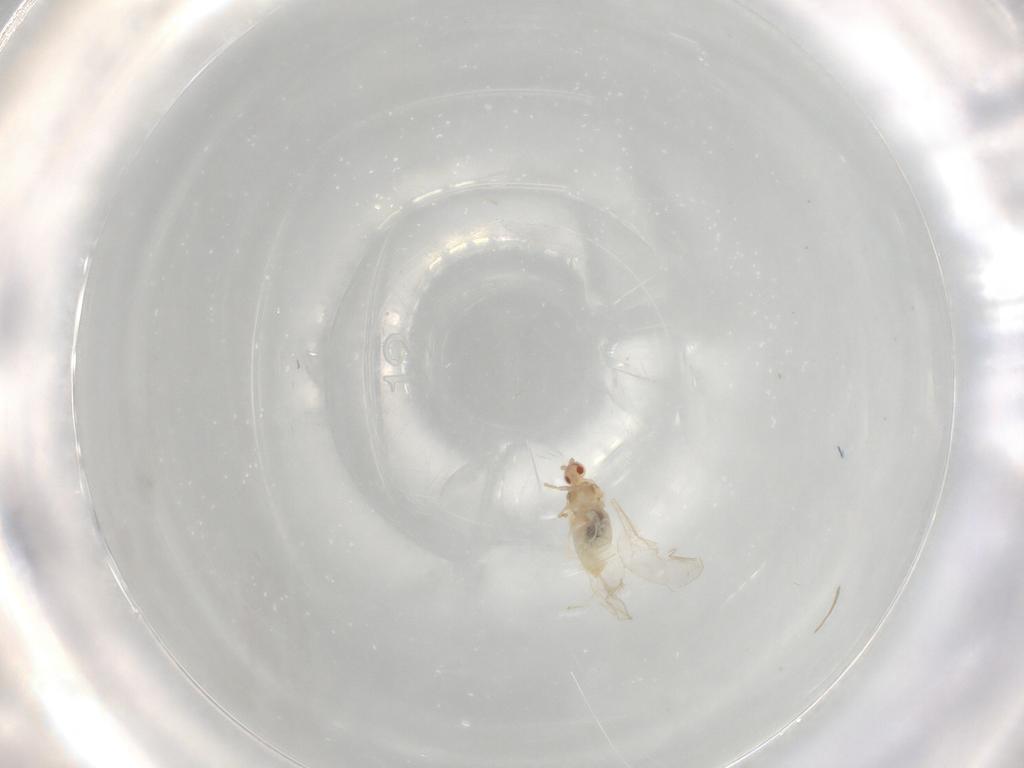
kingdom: Animalia
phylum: Arthropoda
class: Insecta
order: Diptera
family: Cecidomyiidae
